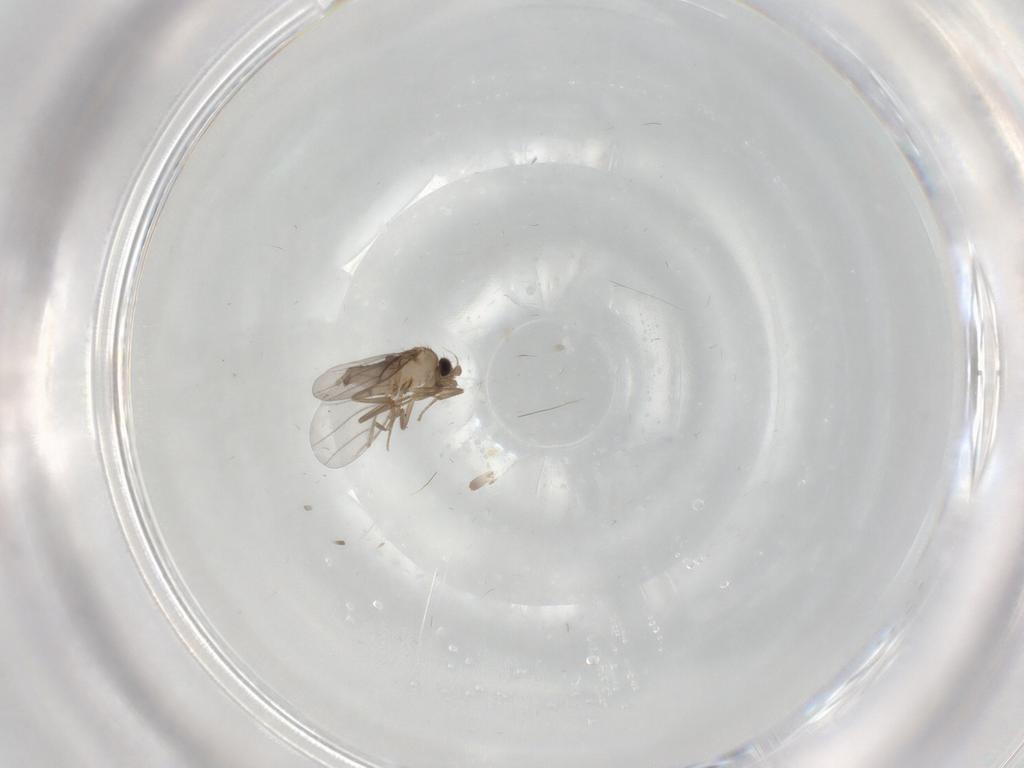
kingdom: Animalia
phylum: Arthropoda
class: Insecta
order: Diptera
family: Cecidomyiidae
